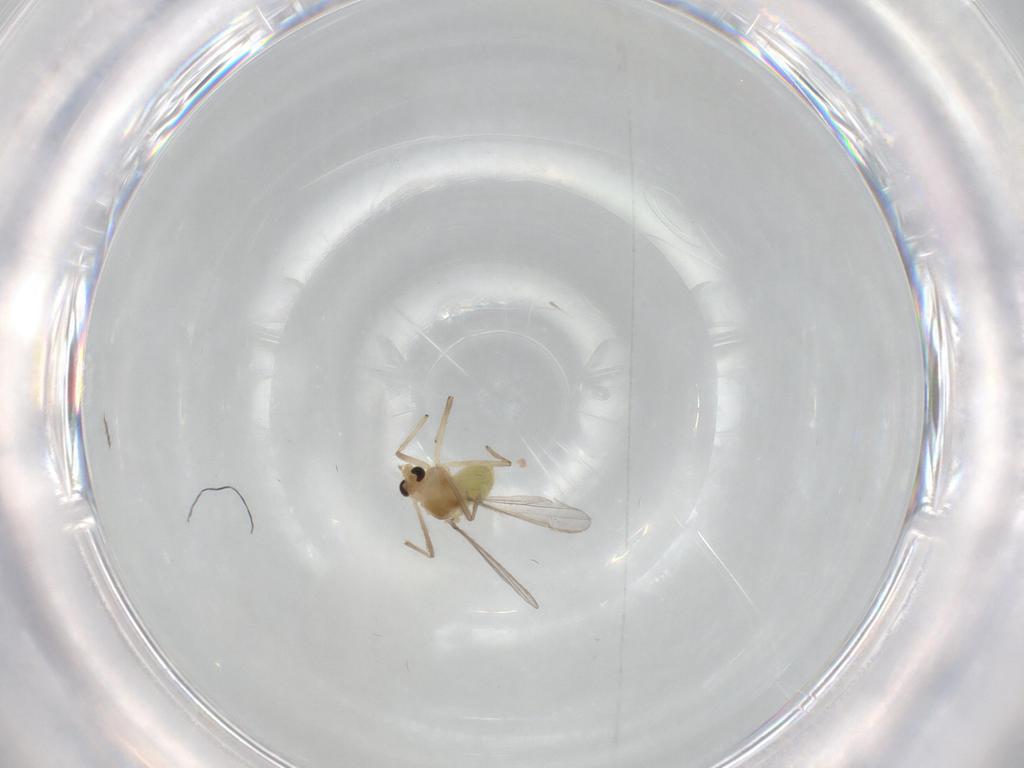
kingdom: Animalia
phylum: Arthropoda
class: Insecta
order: Diptera
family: Chironomidae
